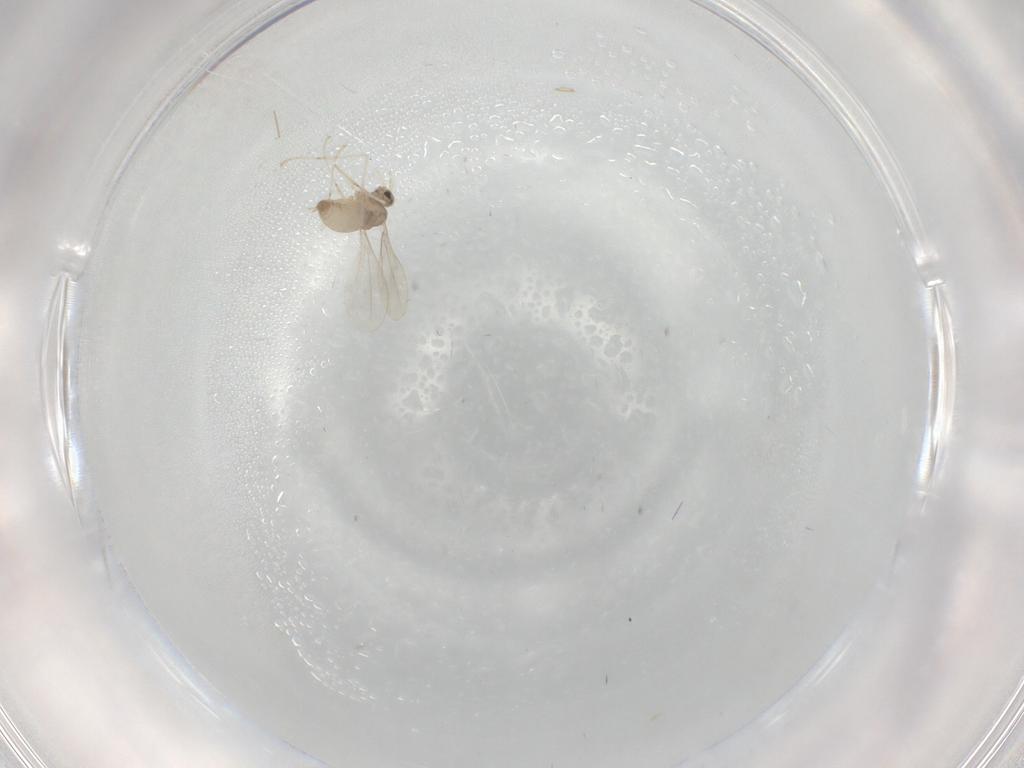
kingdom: Animalia
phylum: Arthropoda
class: Insecta
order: Diptera
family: Cecidomyiidae
